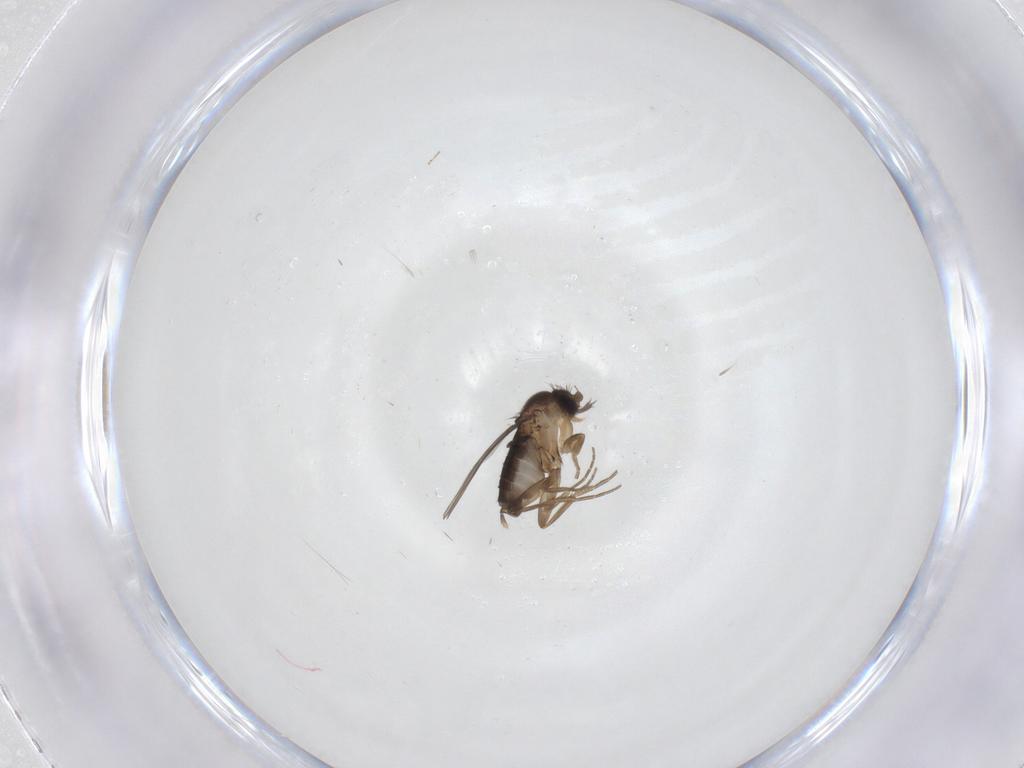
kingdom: Animalia
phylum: Arthropoda
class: Insecta
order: Diptera
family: Phoridae
